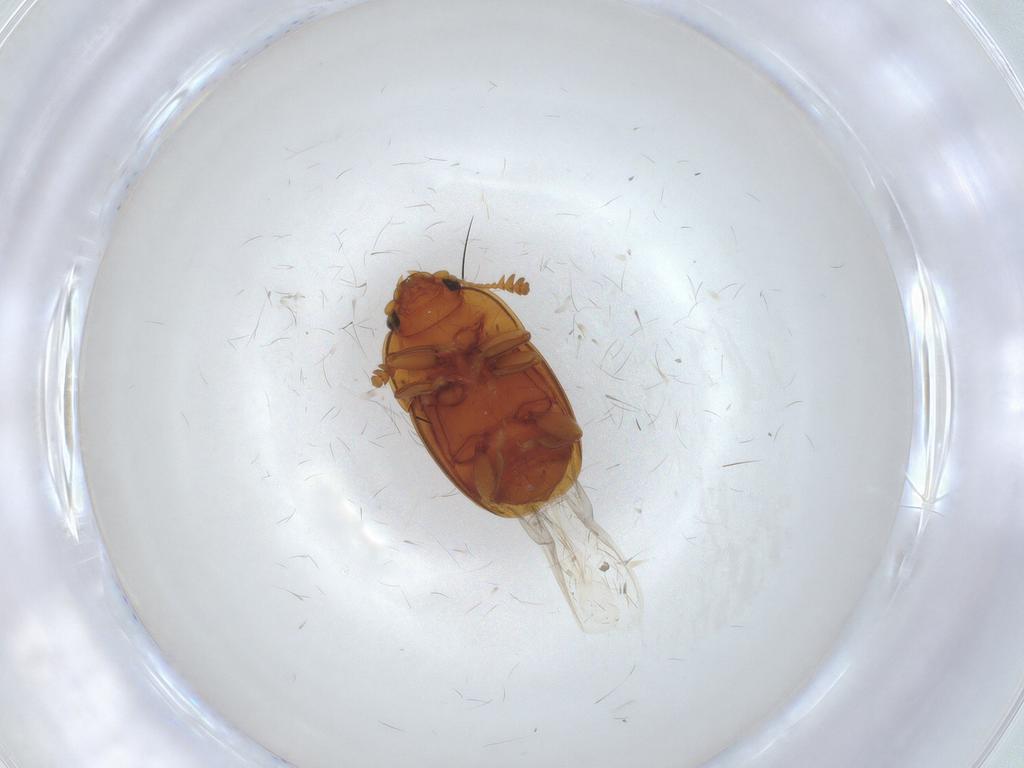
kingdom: Animalia
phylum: Arthropoda
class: Insecta
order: Coleoptera
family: Nitidulidae
